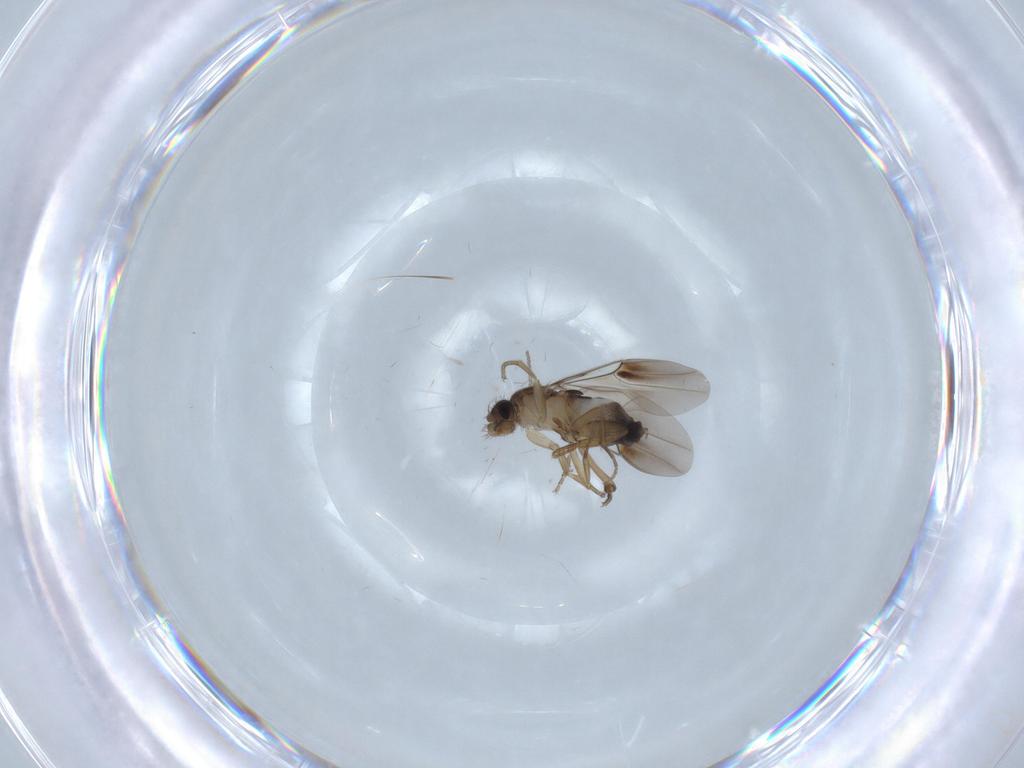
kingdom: Animalia
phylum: Arthropoda
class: Insecta
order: Diptera
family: Psychodidae
